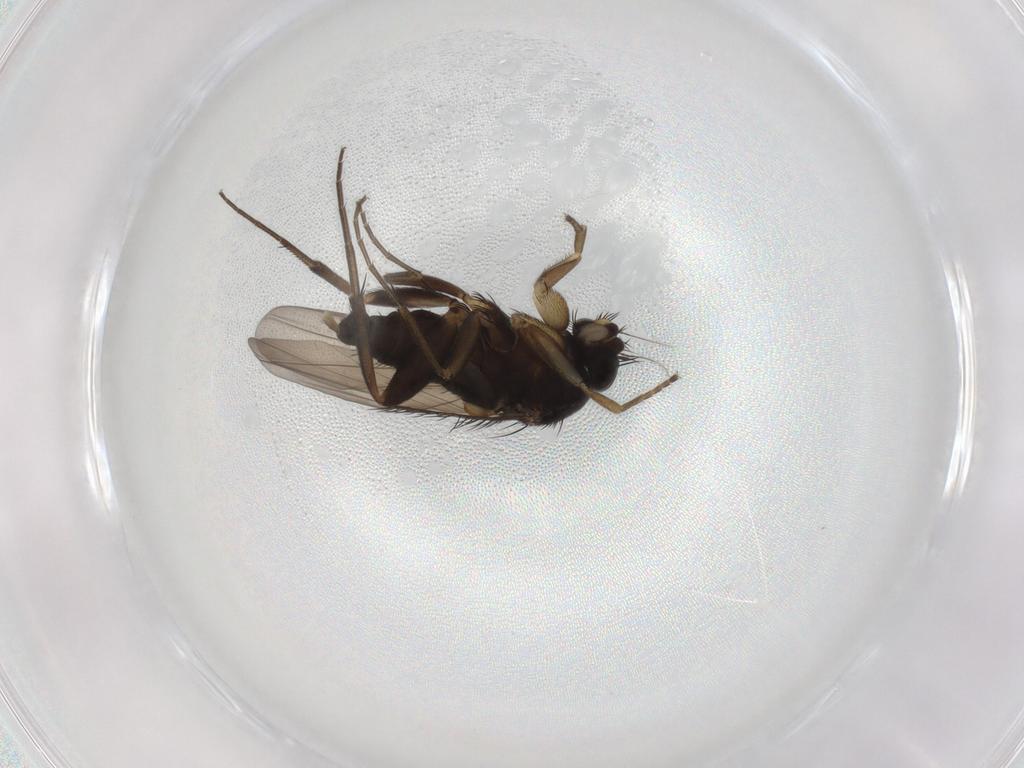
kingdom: Animalia
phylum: Arthropoda
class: Insecta
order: Diptera
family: Phoridae
